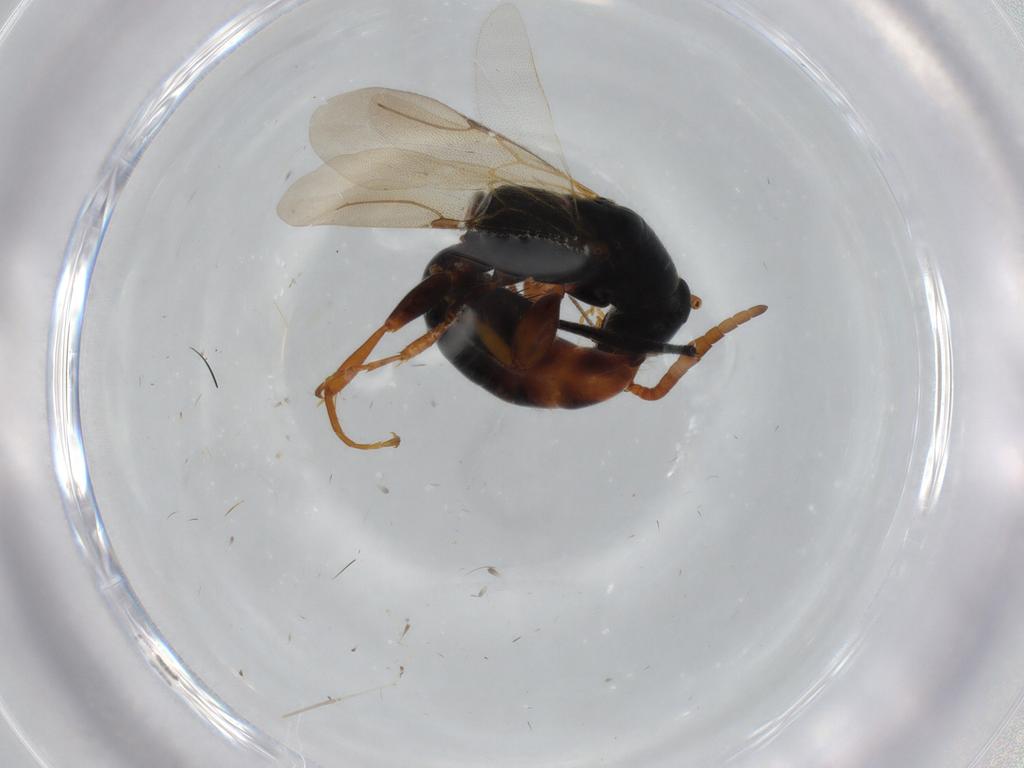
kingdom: Animalia
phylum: Arthropoda
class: Insecta
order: Hymenoptera
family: Bethylidae
